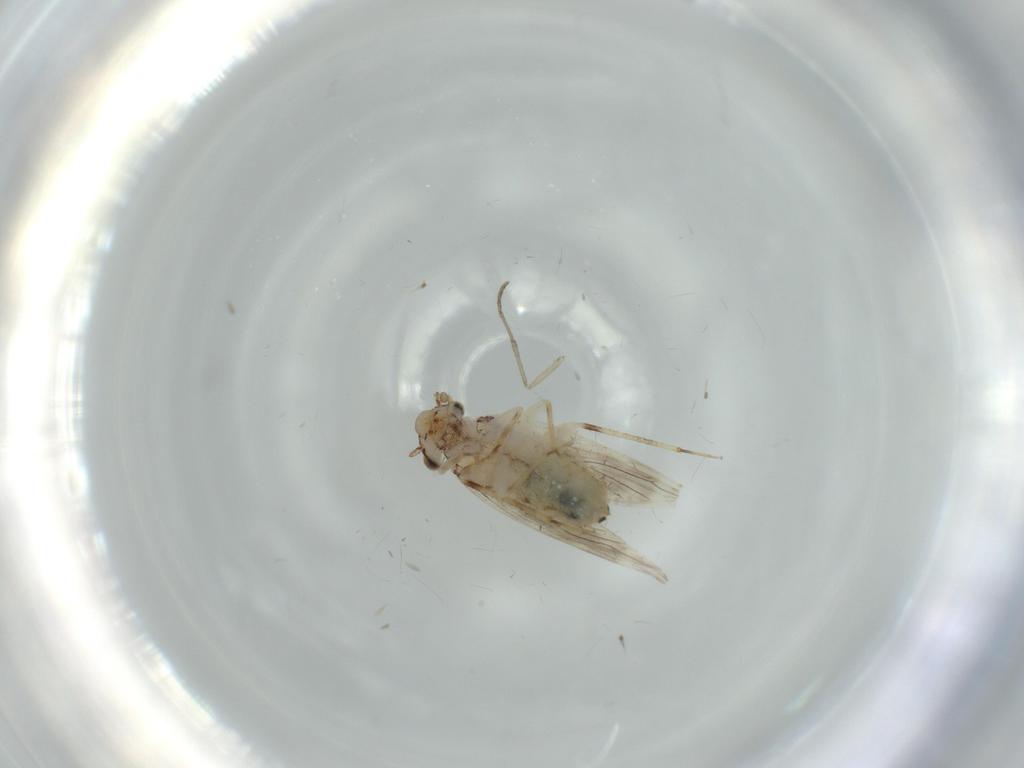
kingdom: Animalia
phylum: Arthropoda
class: Insecta
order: Psocodea
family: Lepidopsocidae
